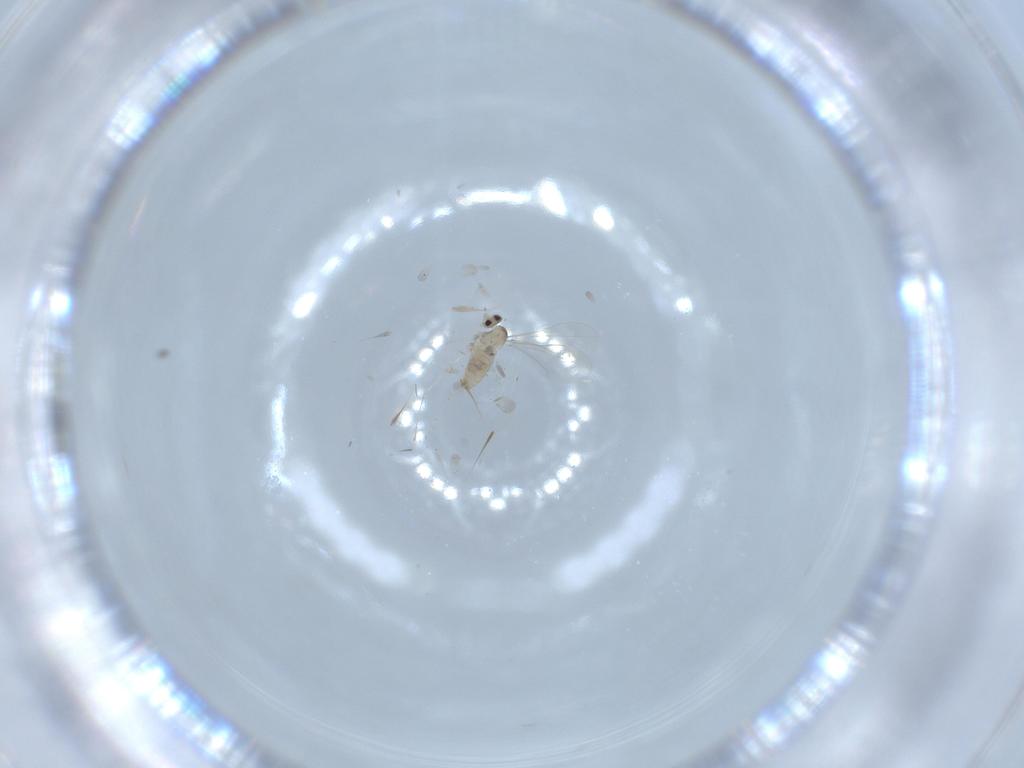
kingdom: Animalia
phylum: Arthropoda
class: Insecta
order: Diptera
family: Cecidomyiidae
